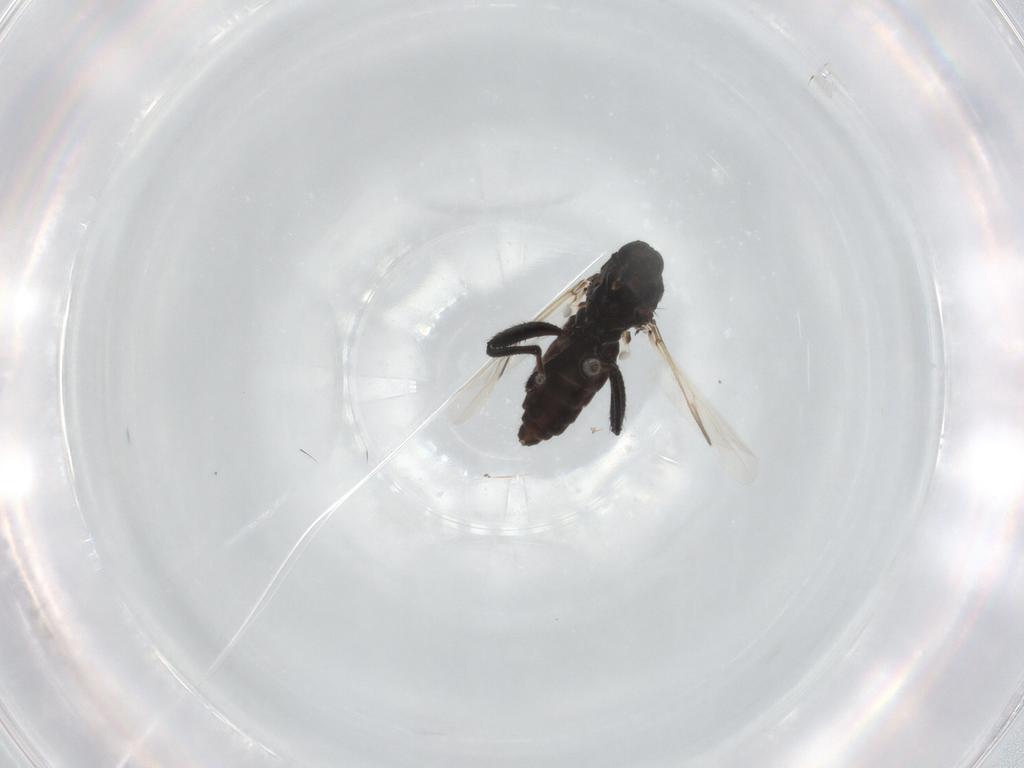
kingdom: Animalia
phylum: Arthropoda
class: Insecta
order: Diptera
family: Ceratopogonidae
